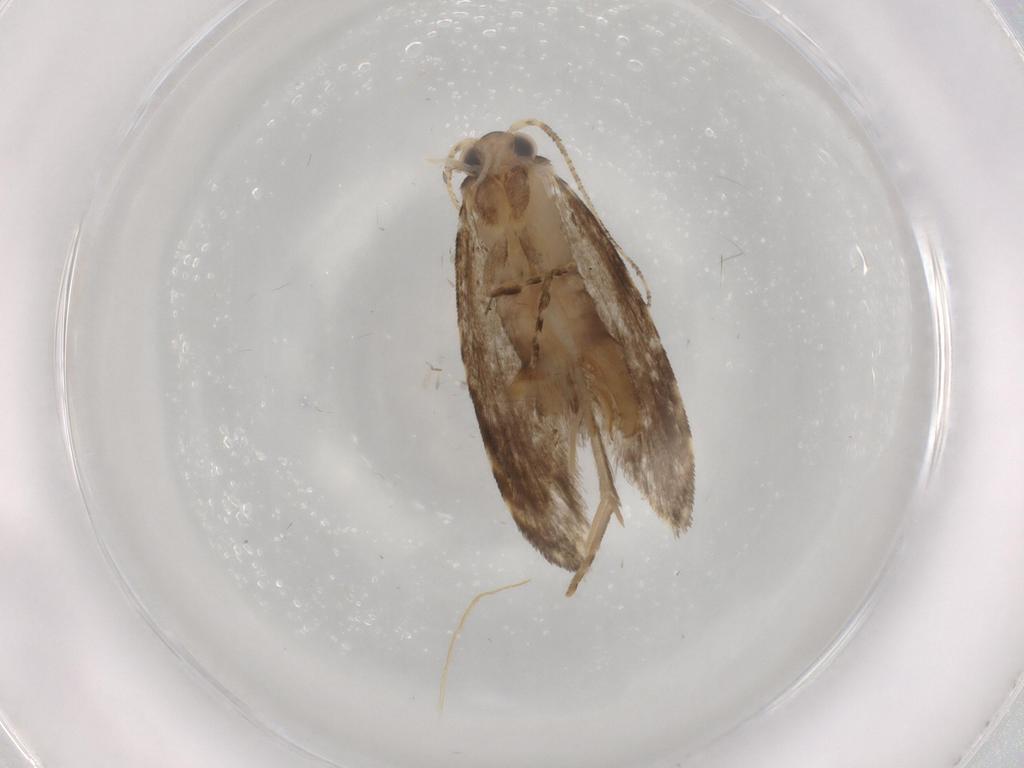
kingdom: Animalia
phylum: Arthropoda
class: Insecta
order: Lepidoptera
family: Tineidae
